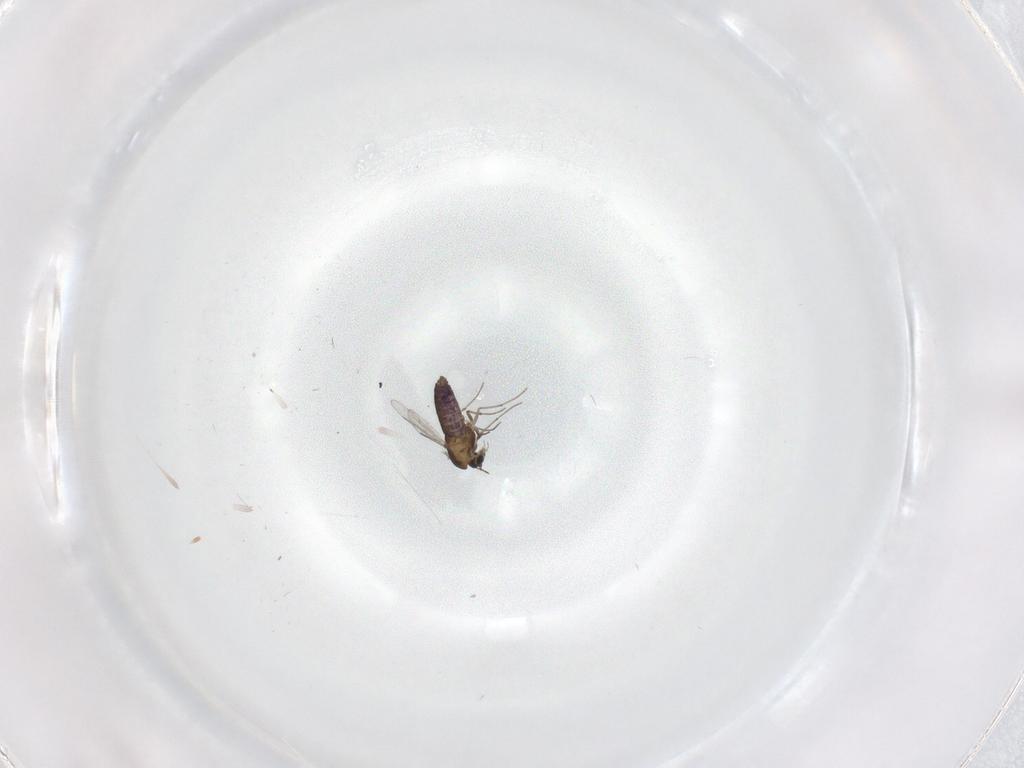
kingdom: Animalia
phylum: Arthropoda
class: Insecta
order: Diptera
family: Chironomidae
